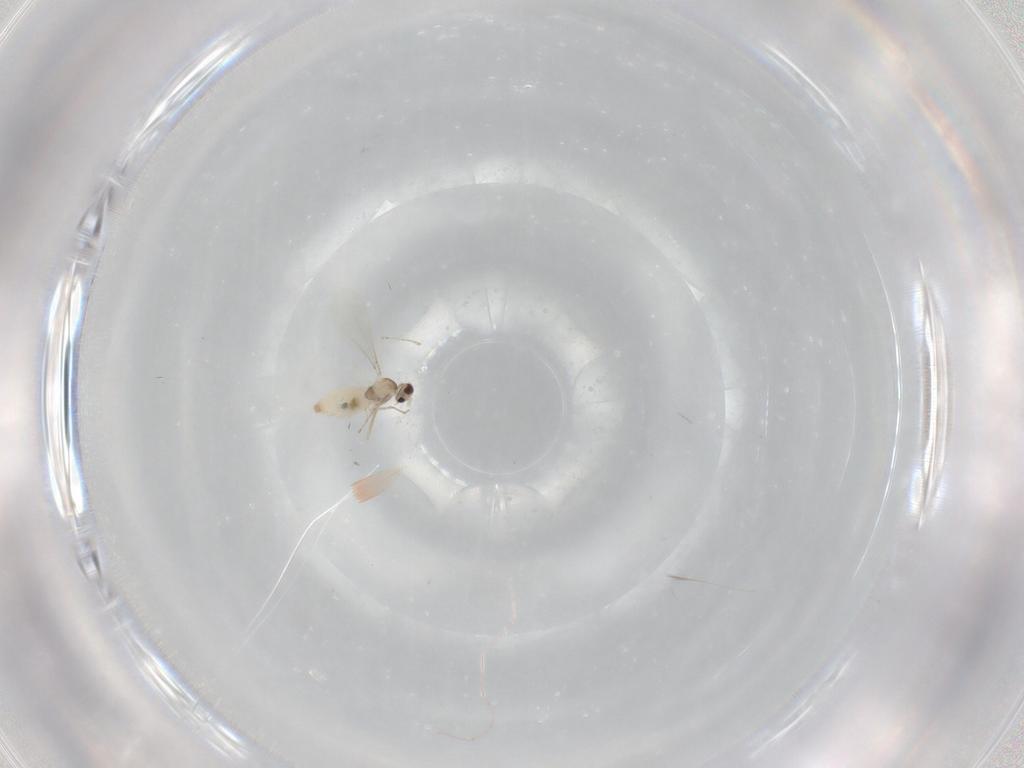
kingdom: Animalia
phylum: Arthropoda
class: Insecta
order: Diptera
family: Cecidomyiidae
